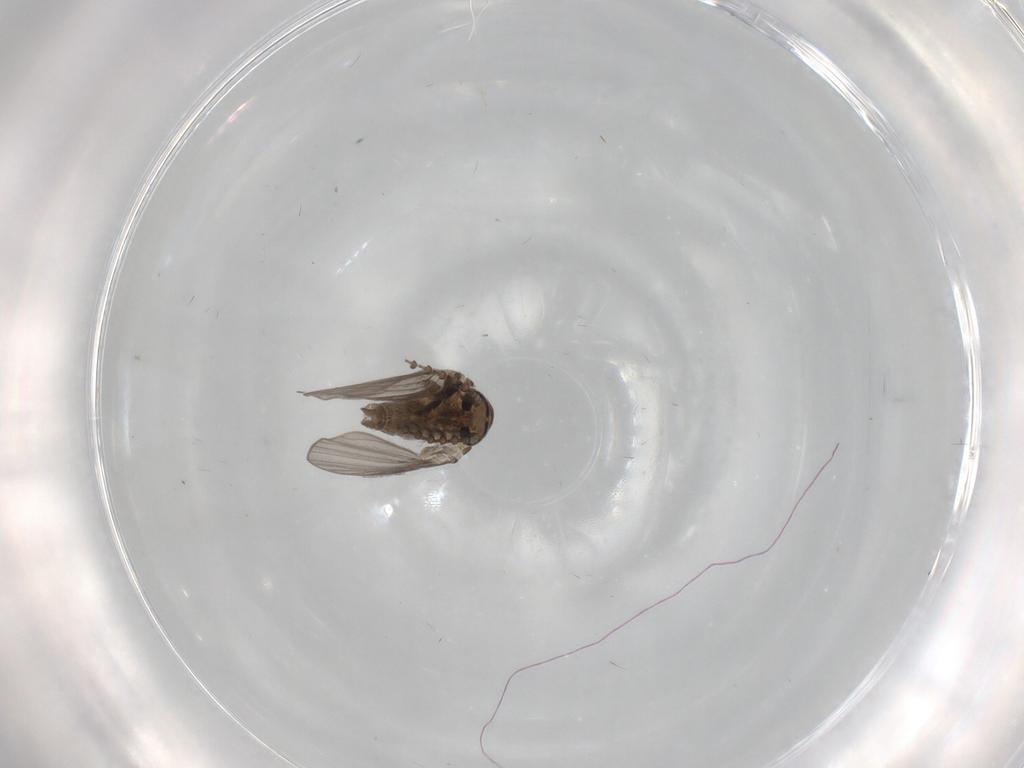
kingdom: Animalia
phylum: Arthropoda
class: Insecta
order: Diptera
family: Psychodidae
